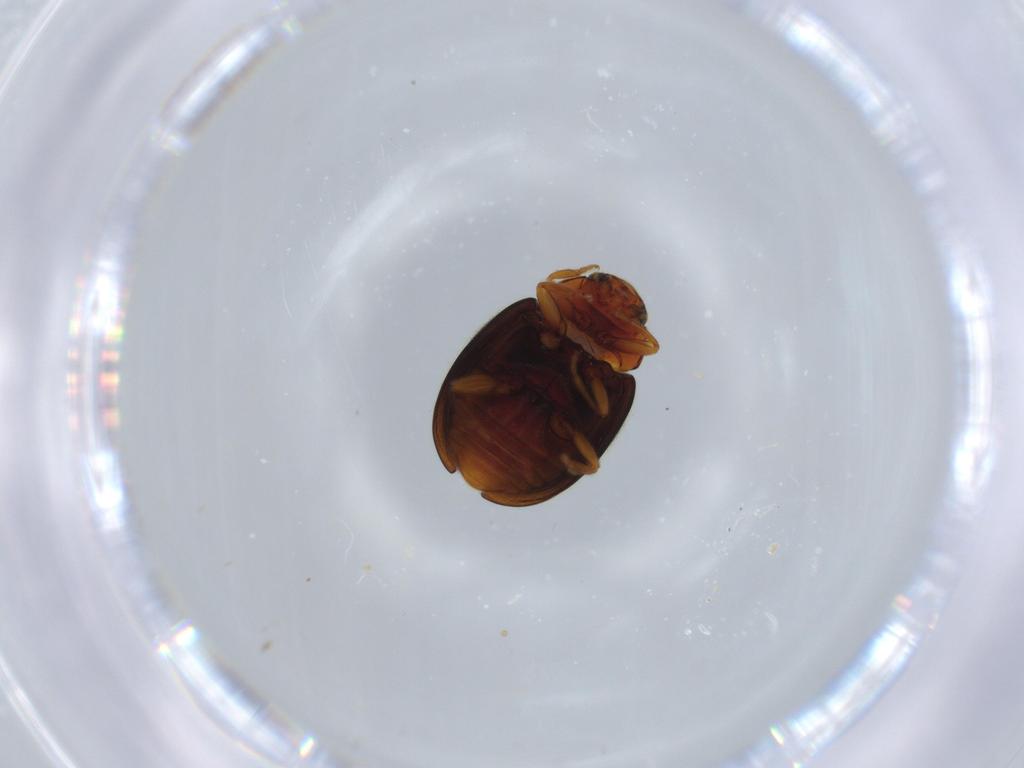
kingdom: Animalia
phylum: Arthropoda
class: Insecta
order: Coleoptera
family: Coccinellidae
